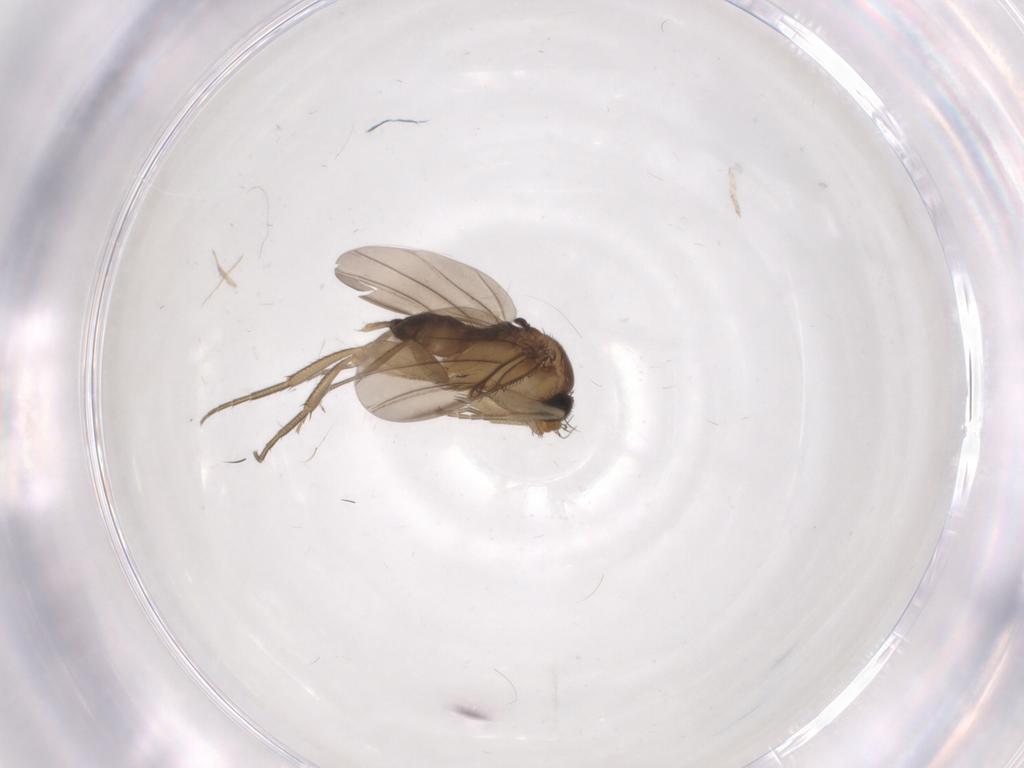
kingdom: Animalia
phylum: Arthropoda
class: Insecta
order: Diptera
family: Phoridae
